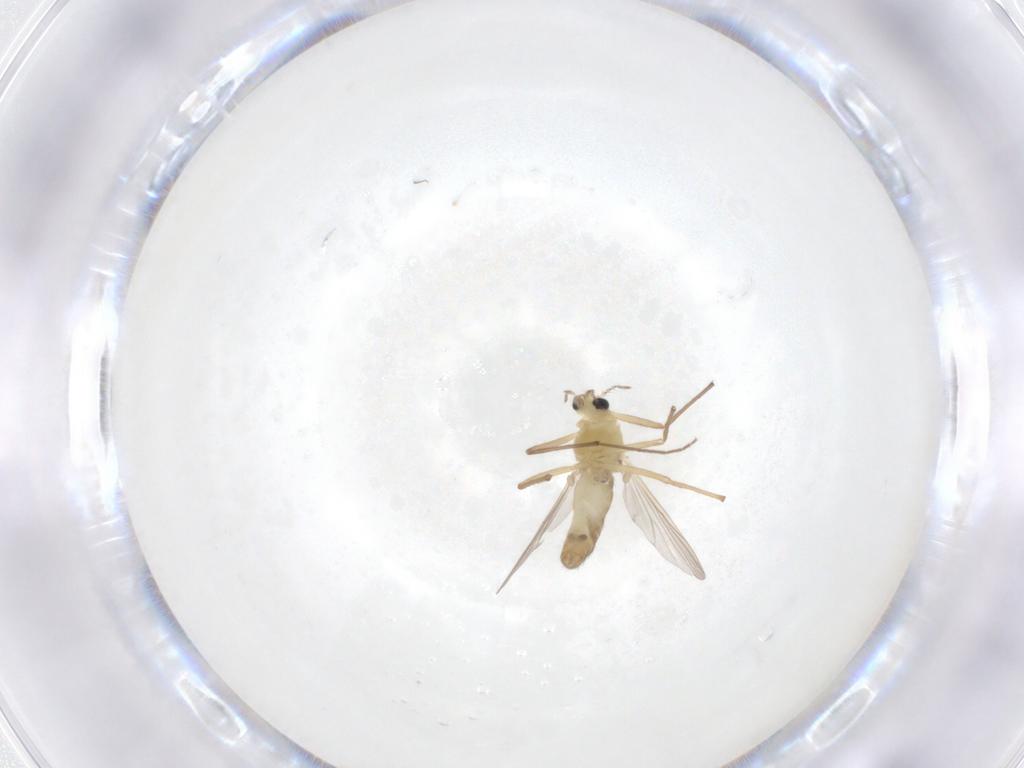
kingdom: Animalia
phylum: Arthropoda
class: Insecta
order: Diptera
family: Chironomidae
